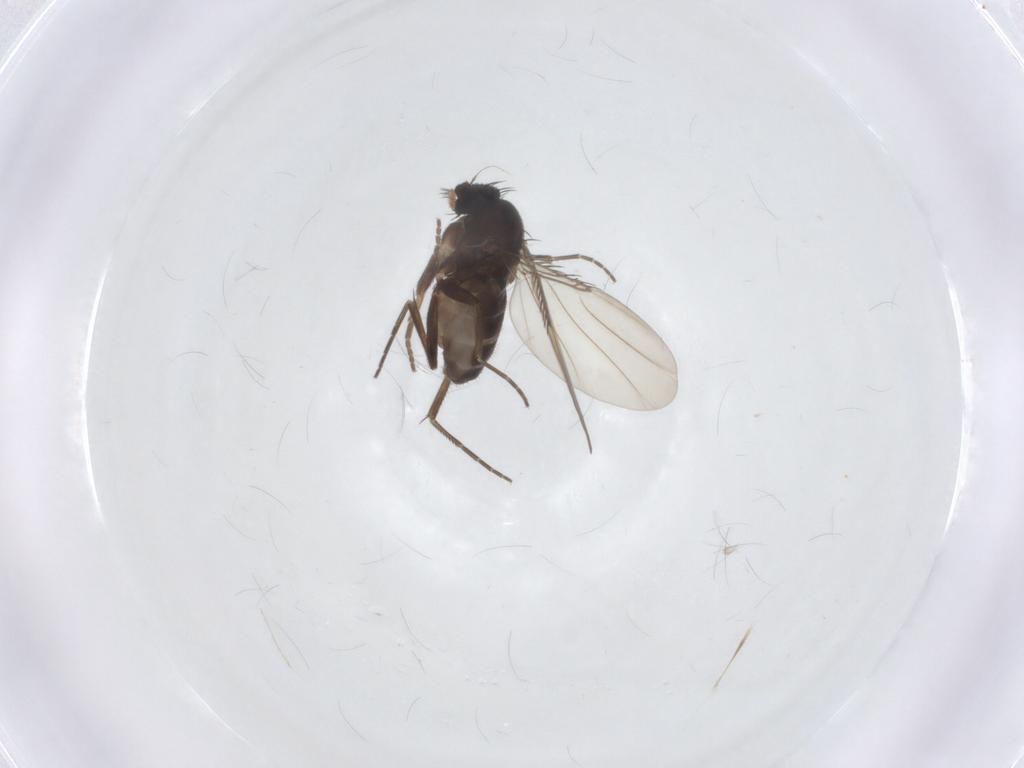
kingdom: Animalia
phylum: Arthropoda
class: Insecta
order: Diptera
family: Phoridae
